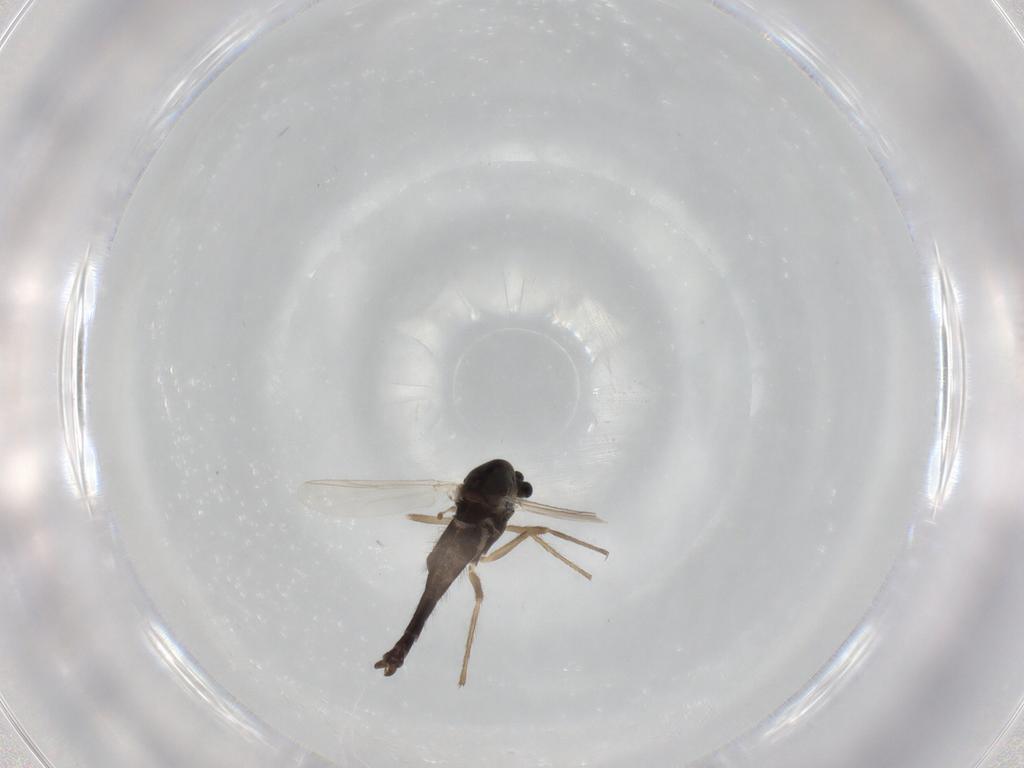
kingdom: Animalia
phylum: Arthropoda
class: Insecta
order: Diptera
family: Chironomidae
